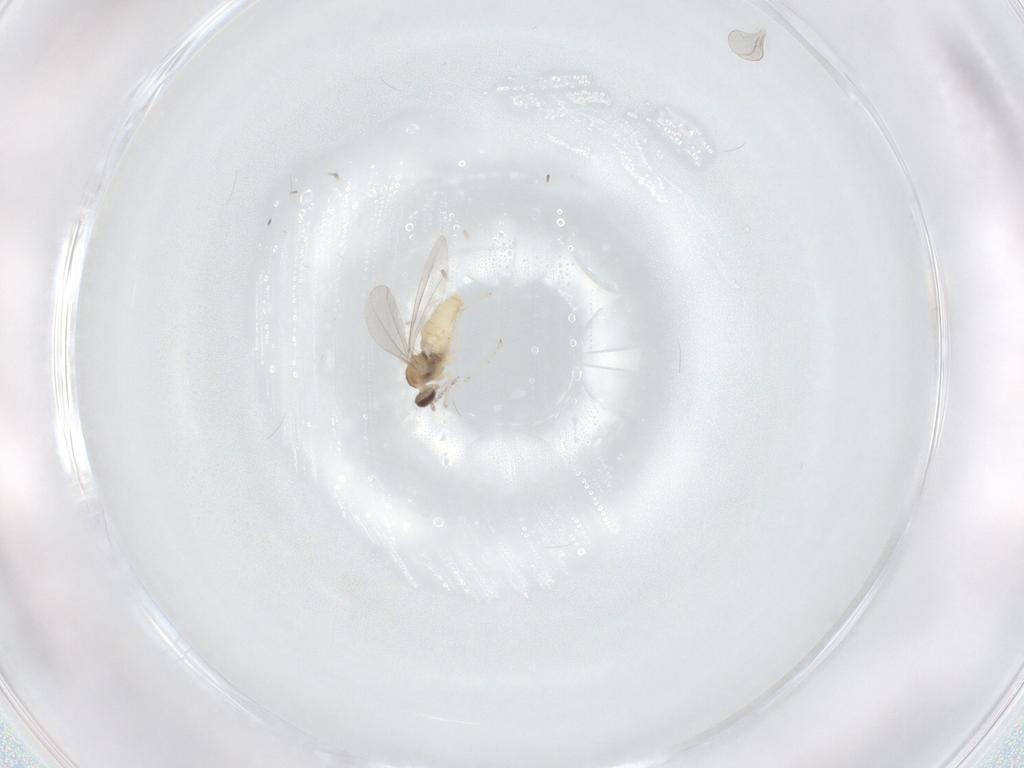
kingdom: Animalia
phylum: Arthropoda
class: Insecta
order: Diptera
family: Cecidomyiidae
